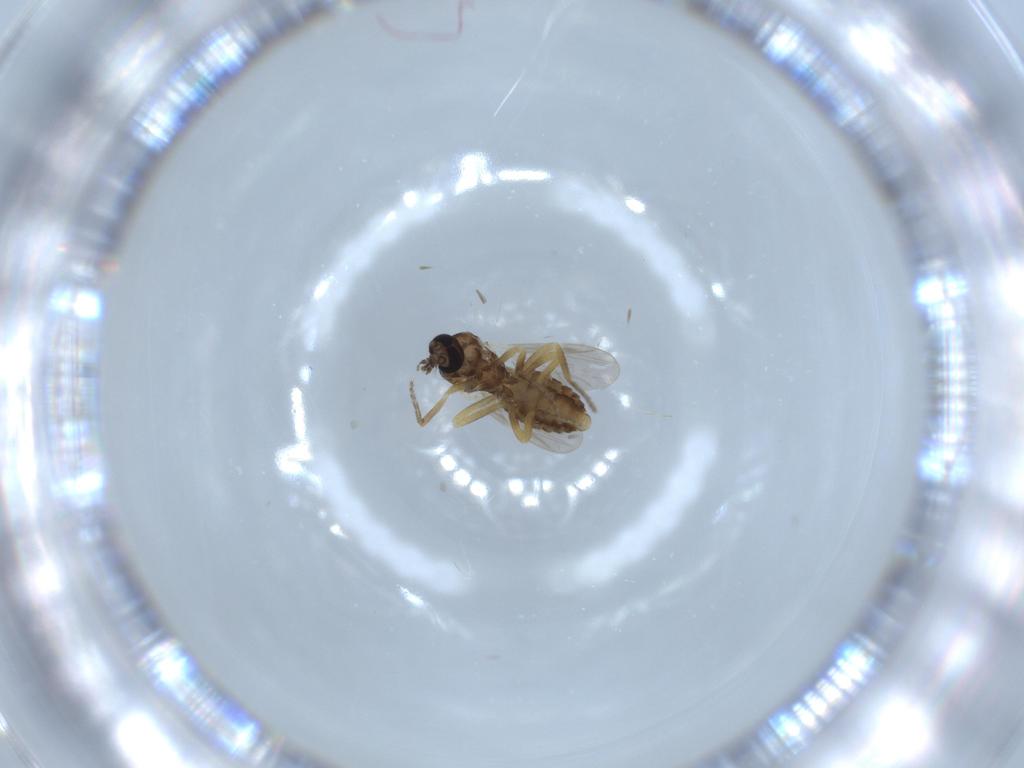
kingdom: Animalia
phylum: Arthropoda
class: Insecta
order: Diptera
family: Ceratopogonidae
